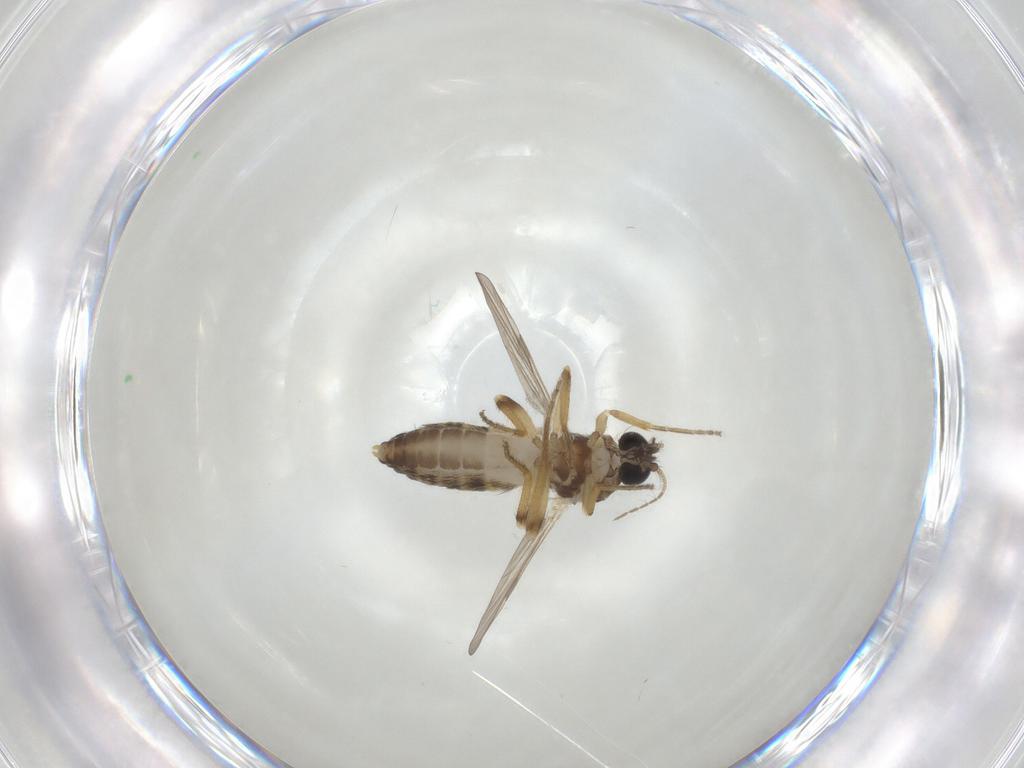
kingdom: Animalia
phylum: Arthropoda
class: Insecta
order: Diptera
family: Ceratopogonidae
